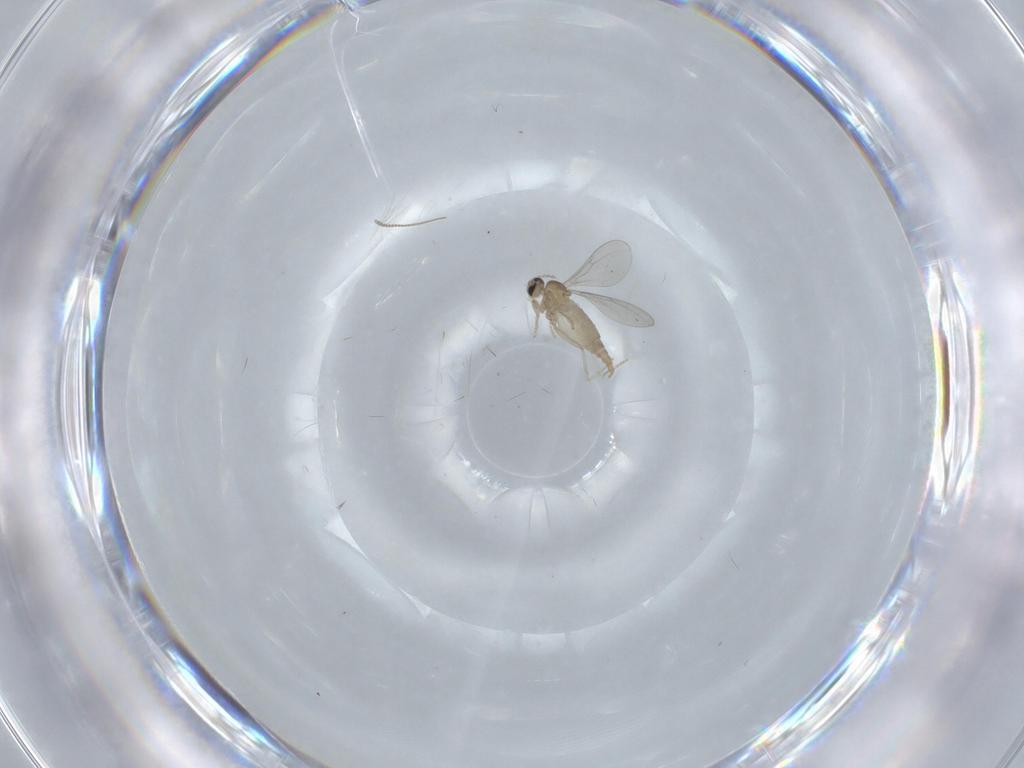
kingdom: Animalia
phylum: Arthropoda
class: Insecta
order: Diptera
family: Cecidomyiidae
